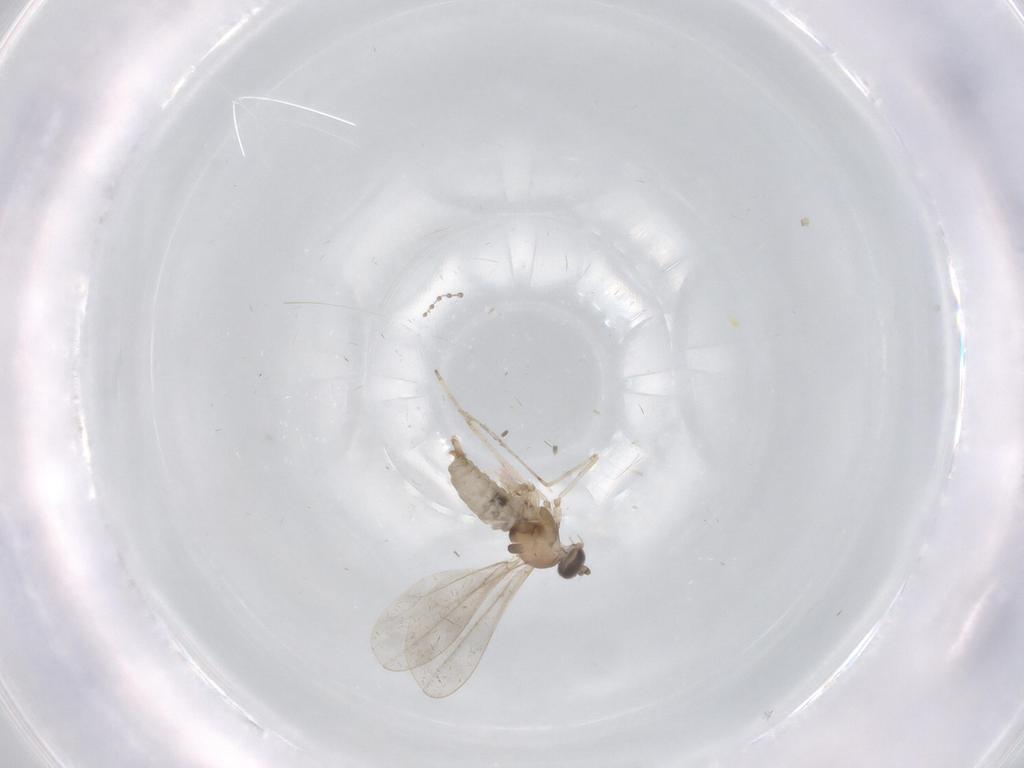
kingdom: Animalia
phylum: Arthropoda
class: Insecta
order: Diptera
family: Cecidomyiidae
